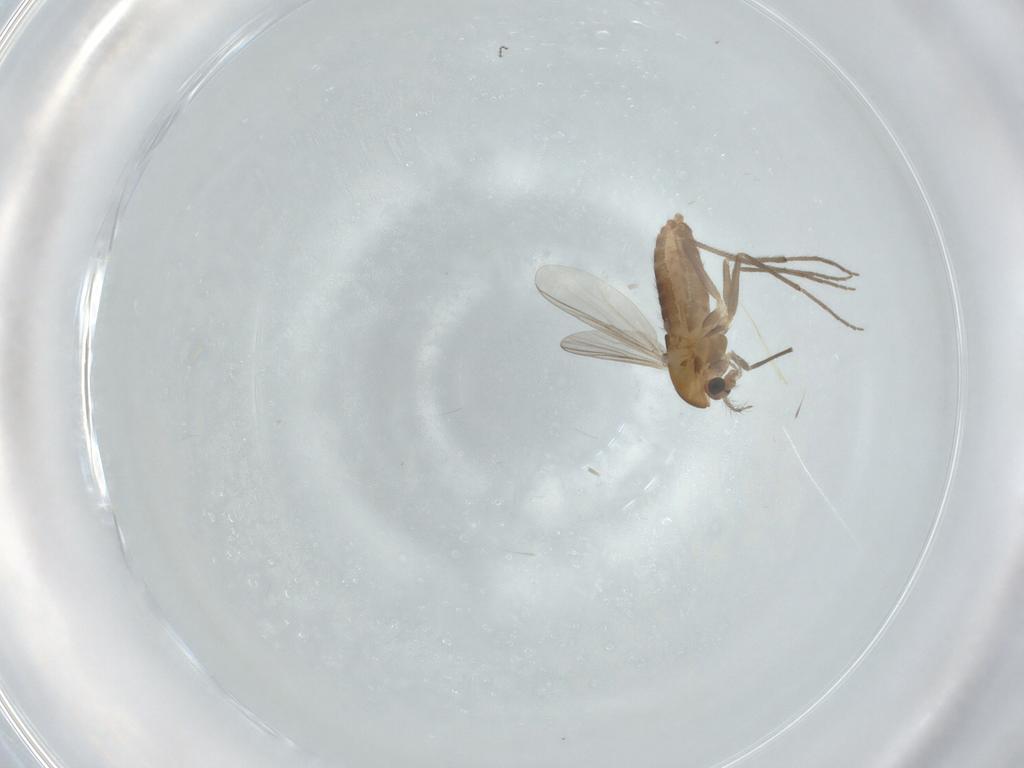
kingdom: Animalia
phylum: Arthropoda
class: Insecta
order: Diptera
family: Chironomidae
